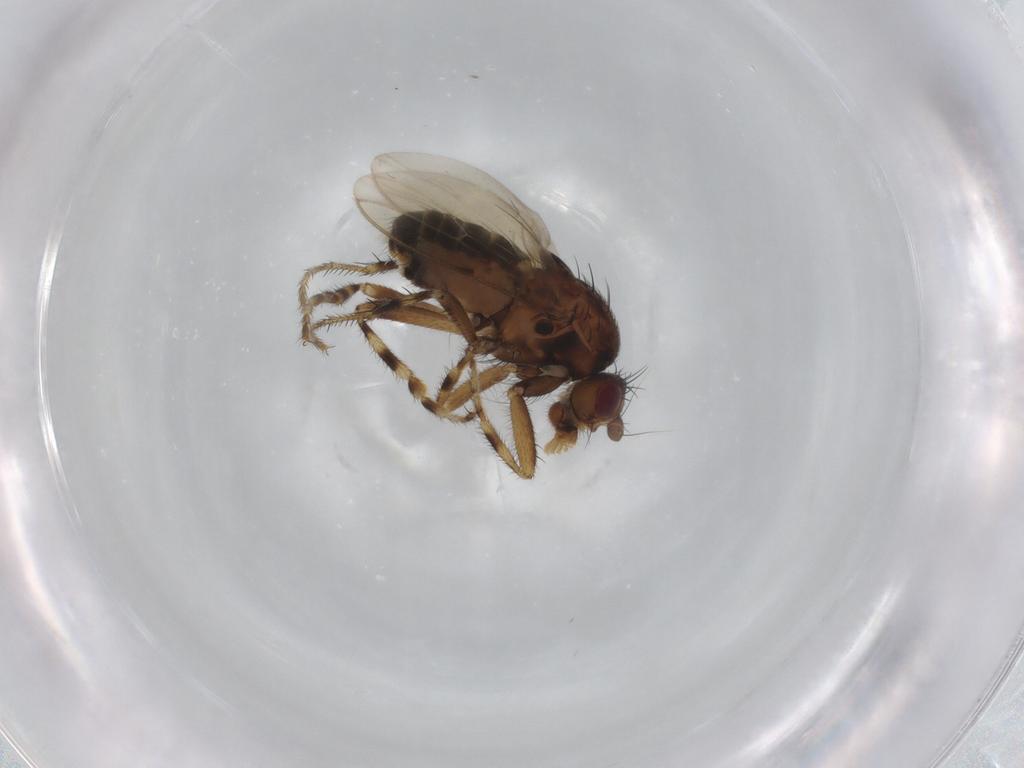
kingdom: Animalia
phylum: Arthropoda
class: Insecta
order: Diptera
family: Sphaeroceridae
